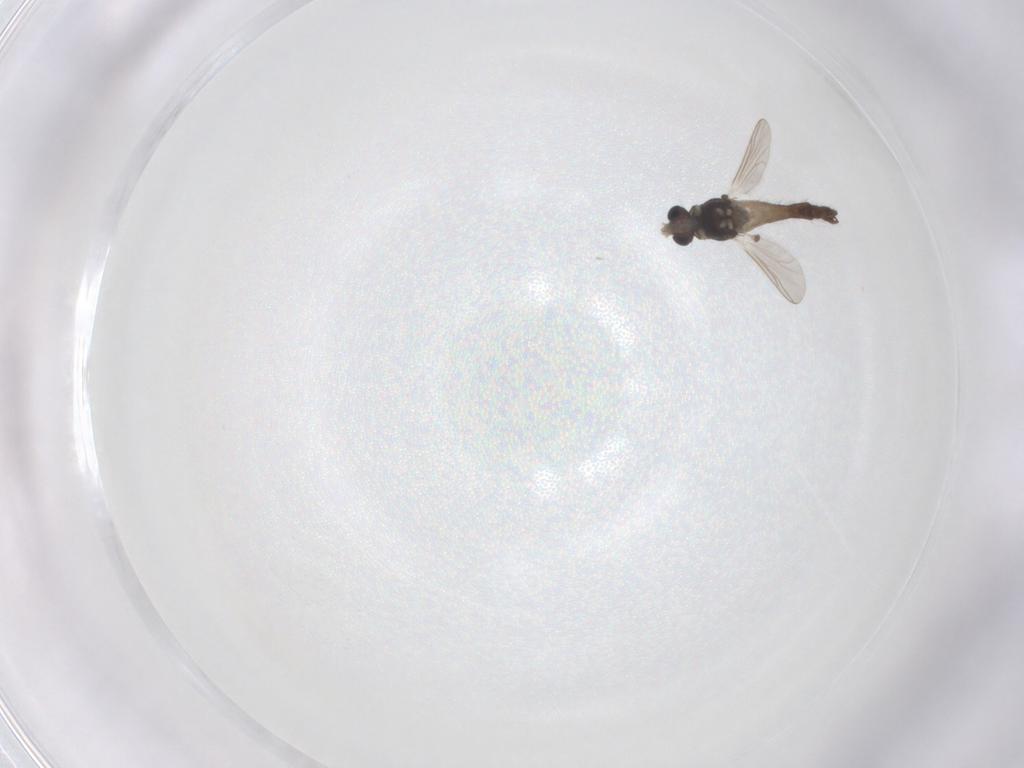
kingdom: Animalia
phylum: Arthropoda
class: Insecta
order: Diptera
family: Chironomidae
